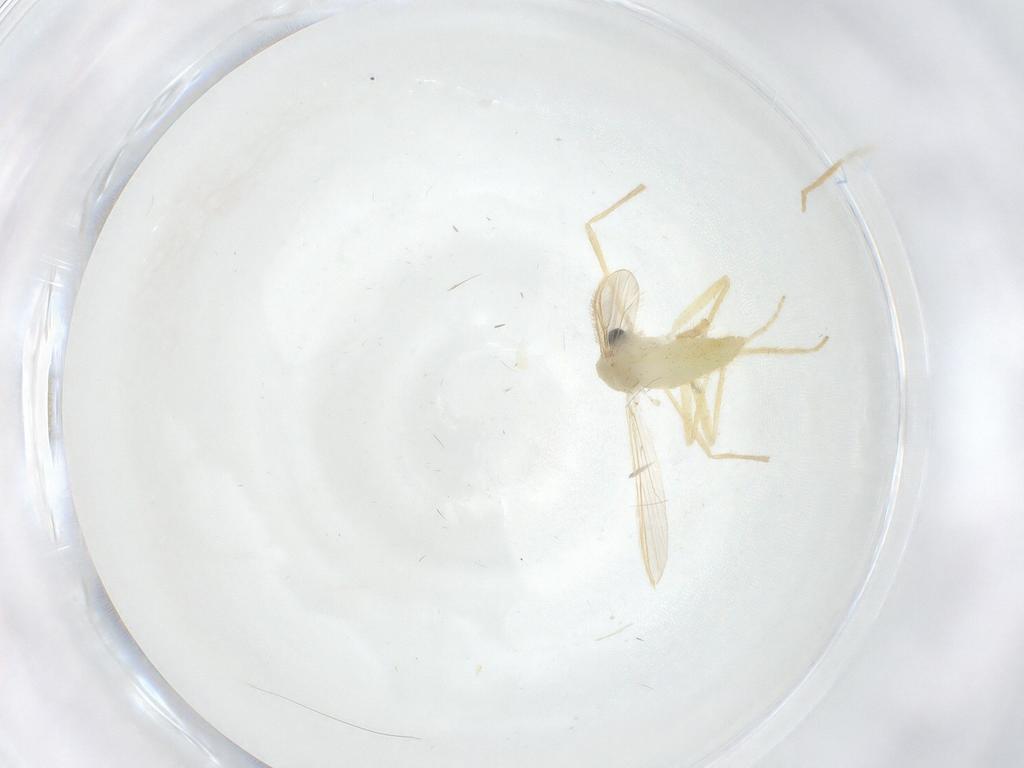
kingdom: Animalia
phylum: Arthropoda
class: Insecta
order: Diptera
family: Chironomidae
